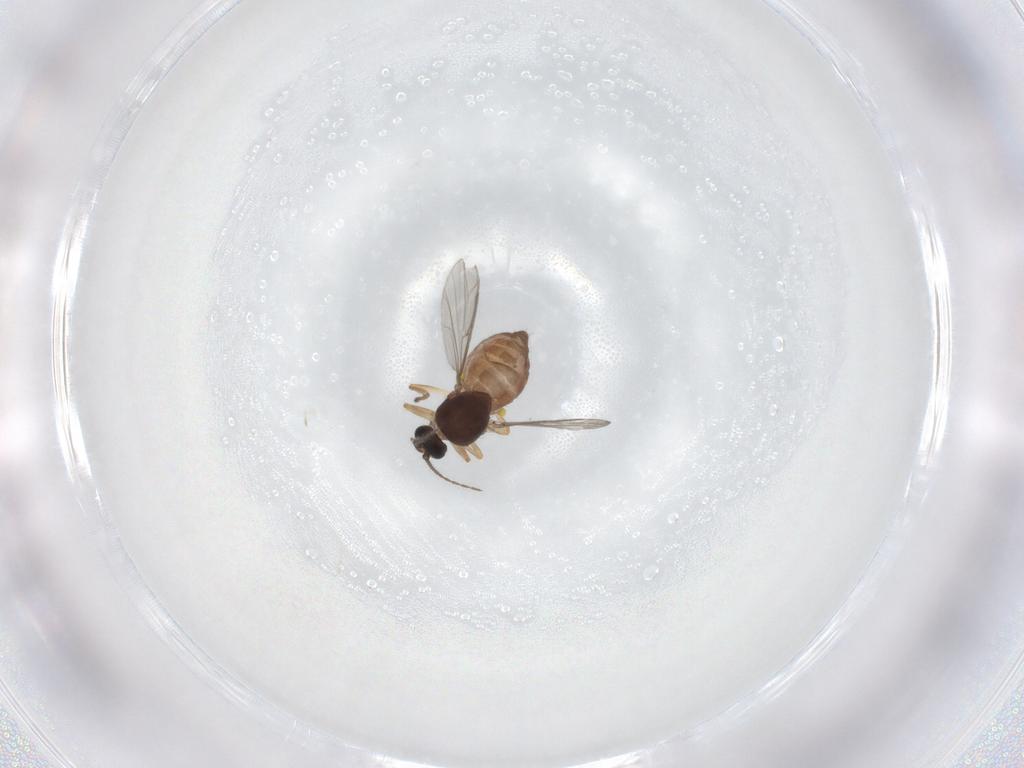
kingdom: Animalia
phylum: Arthropoda
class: Insecta
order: Diptera
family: Ceratopogonidae
